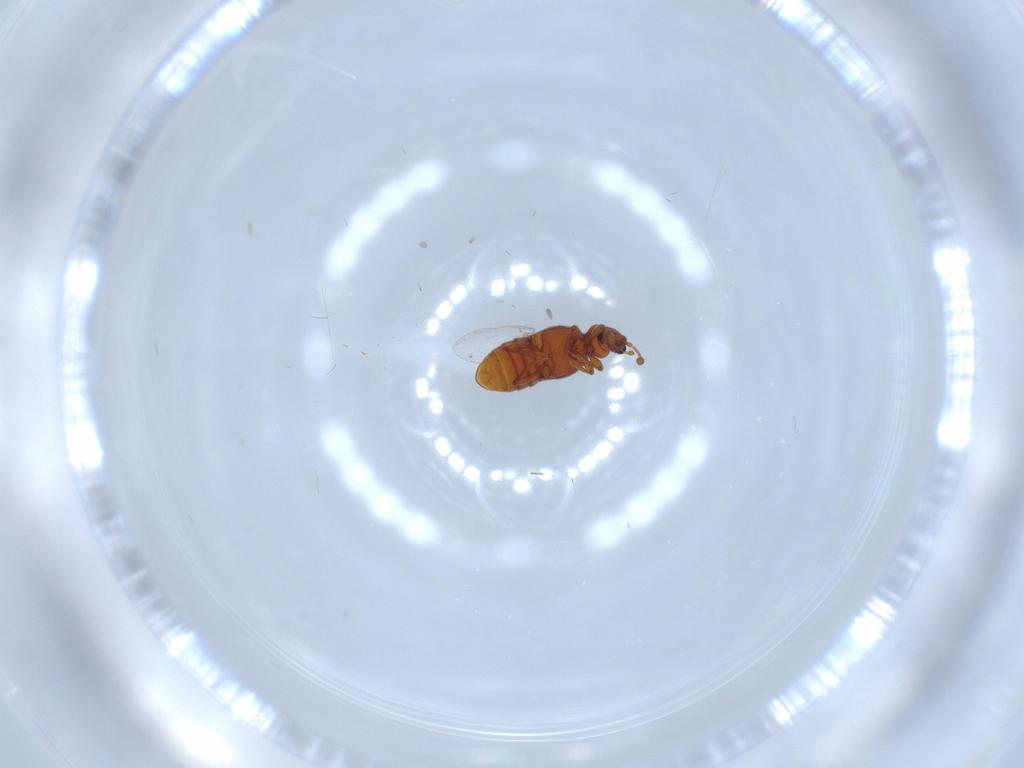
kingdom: Animalia
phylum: Arthropoda
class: Insecta
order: Coleoptera
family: Staphylinidae
